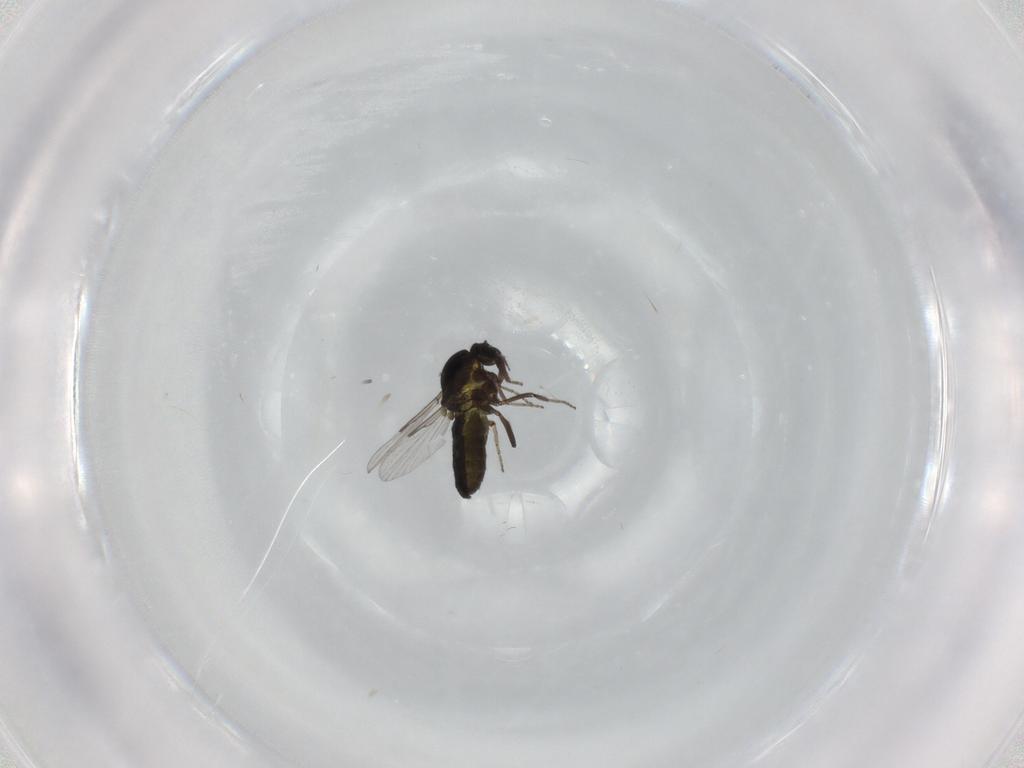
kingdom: Animalia
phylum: Arthropoda
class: Insecta
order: Diptera
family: Ceratopogonidae
